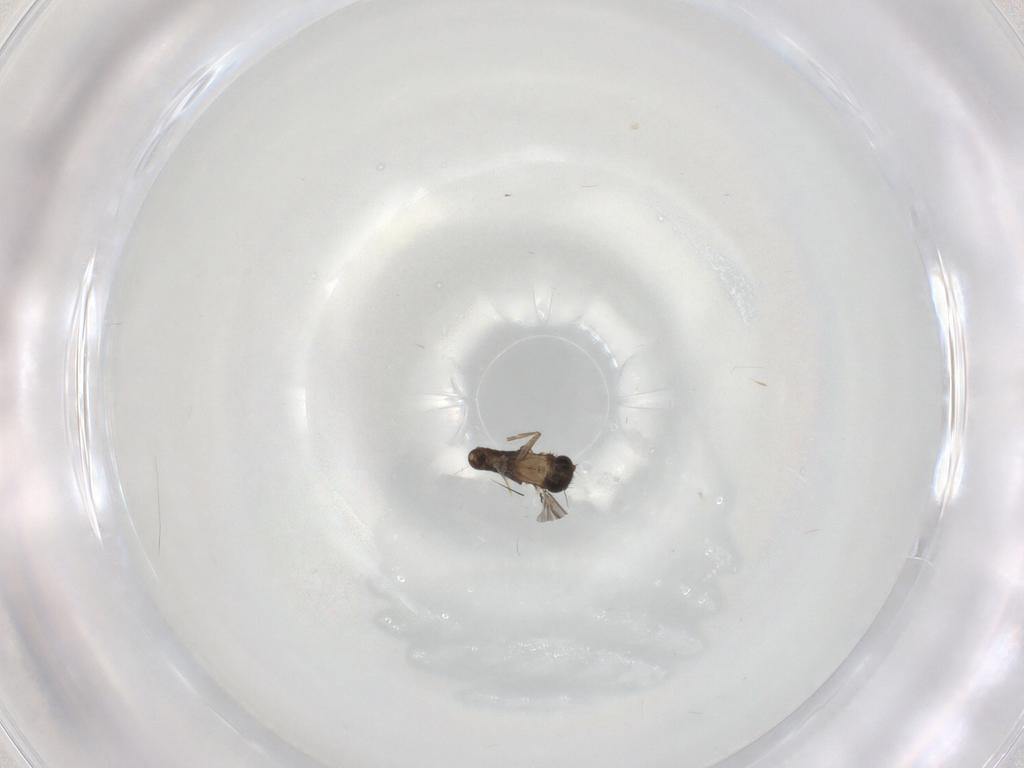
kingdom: Animalia
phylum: Arthropoda
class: Insecta
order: Diptera
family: Phoridae
